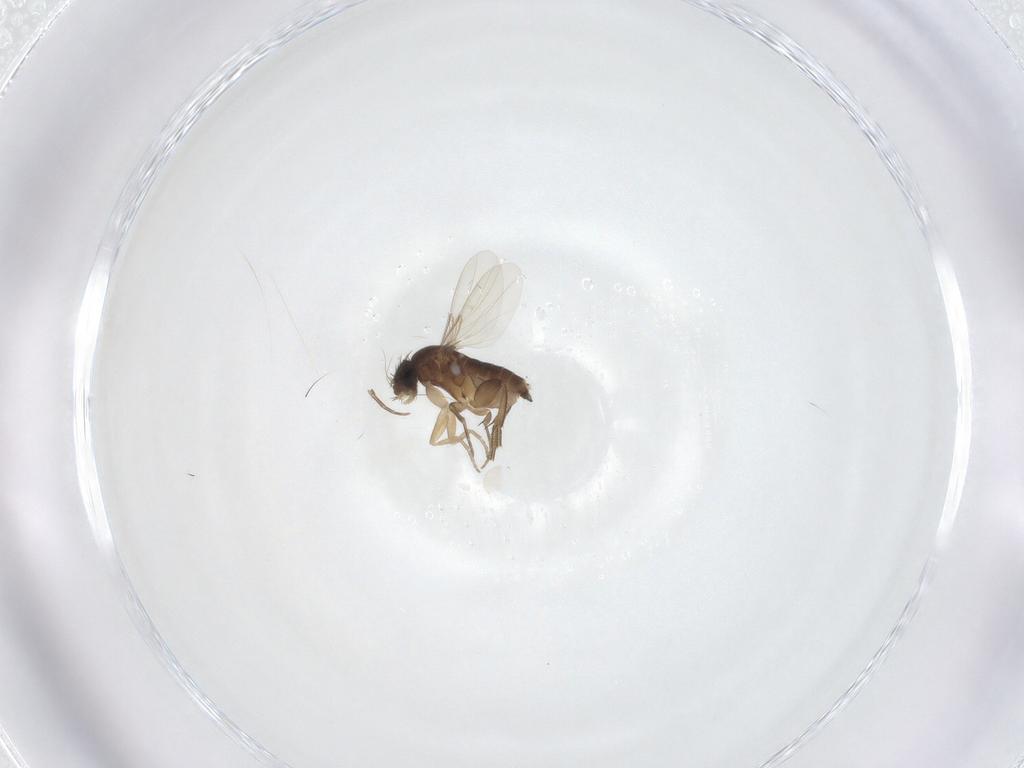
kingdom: Animalia
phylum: Arthropoda
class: Insecta
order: Diptera
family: Phoridae
